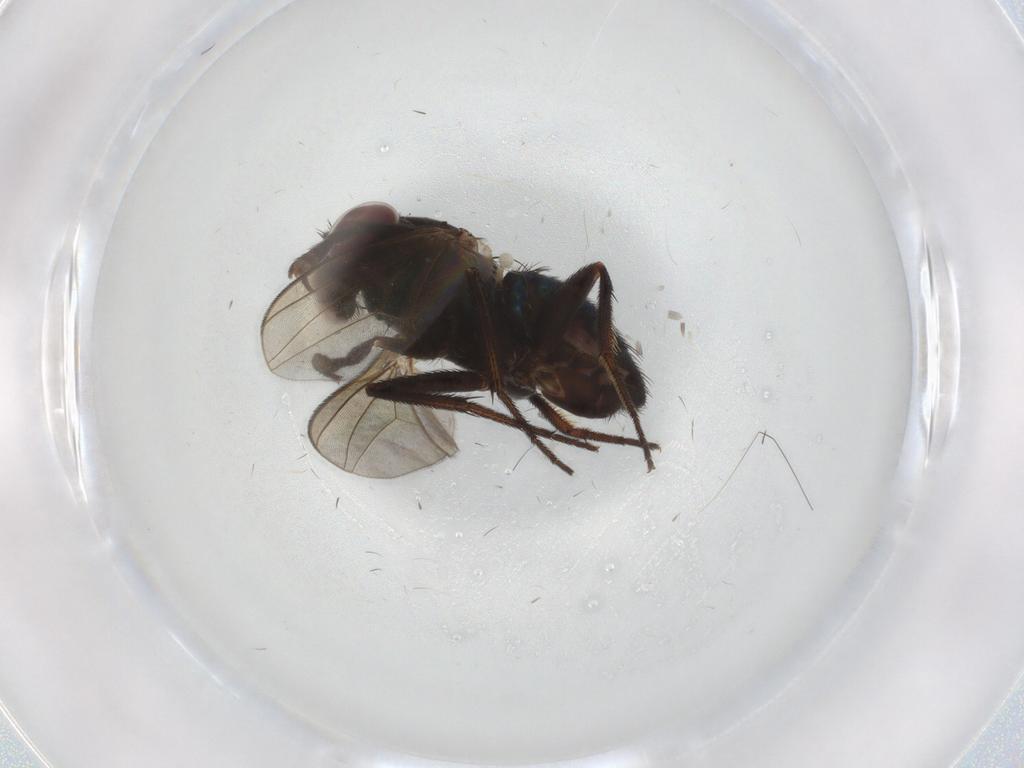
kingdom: Animalia
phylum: Arthropoda
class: Insecta
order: Diptera
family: Dolichopodidae
